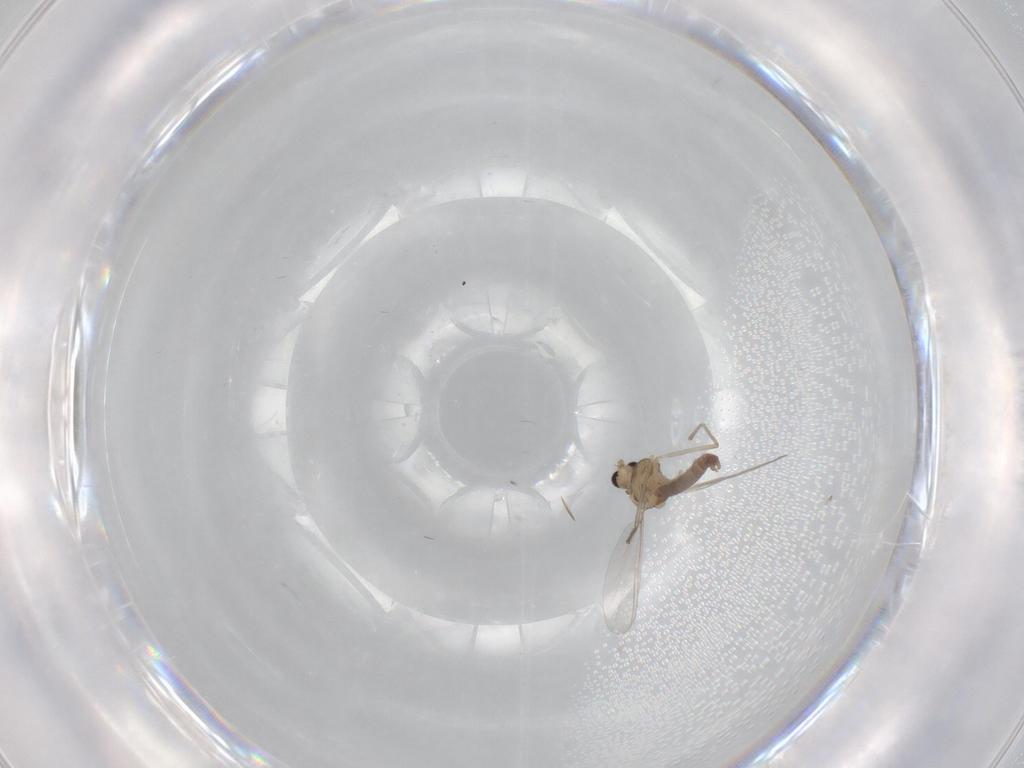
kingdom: Animalia
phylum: Arthropoda
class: Insecta
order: Diptera
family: Chironomidae
